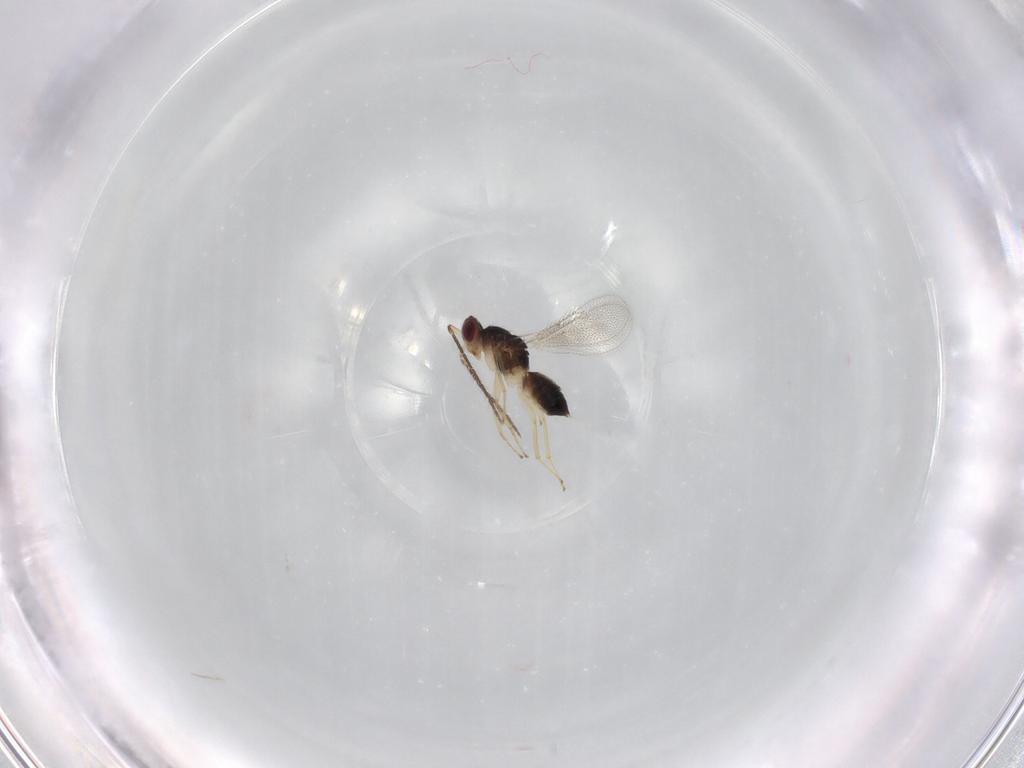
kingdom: Animalia
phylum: Arthropoda
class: Insecta
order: Hymenoptera
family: Eulophidae
